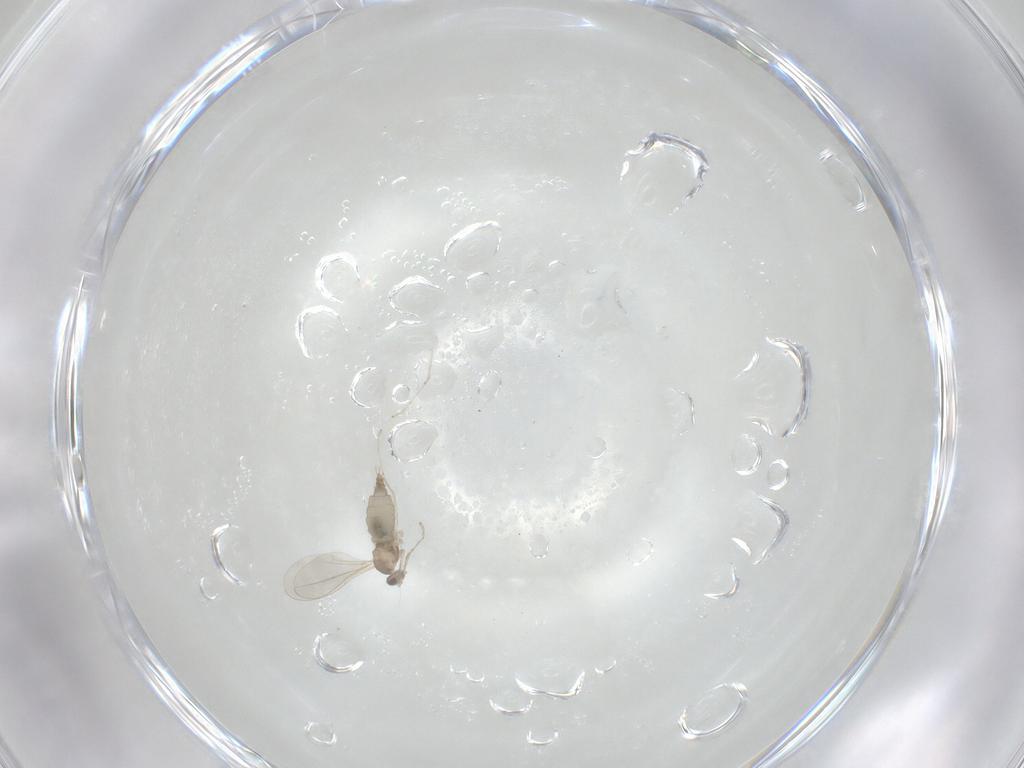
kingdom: Animalia
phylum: Arthropoda
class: Insecta
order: Diptera
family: Cecidomyiidae
